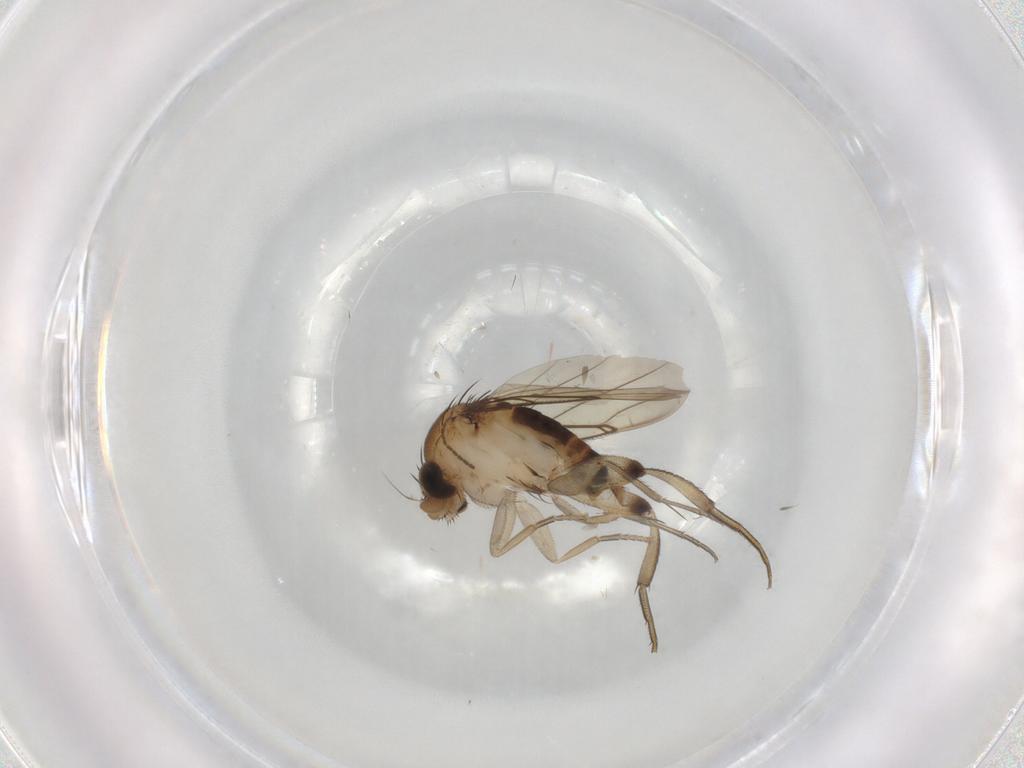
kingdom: Animalia
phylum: Arthropoda
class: Insecta
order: Diptera
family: Phoridae
